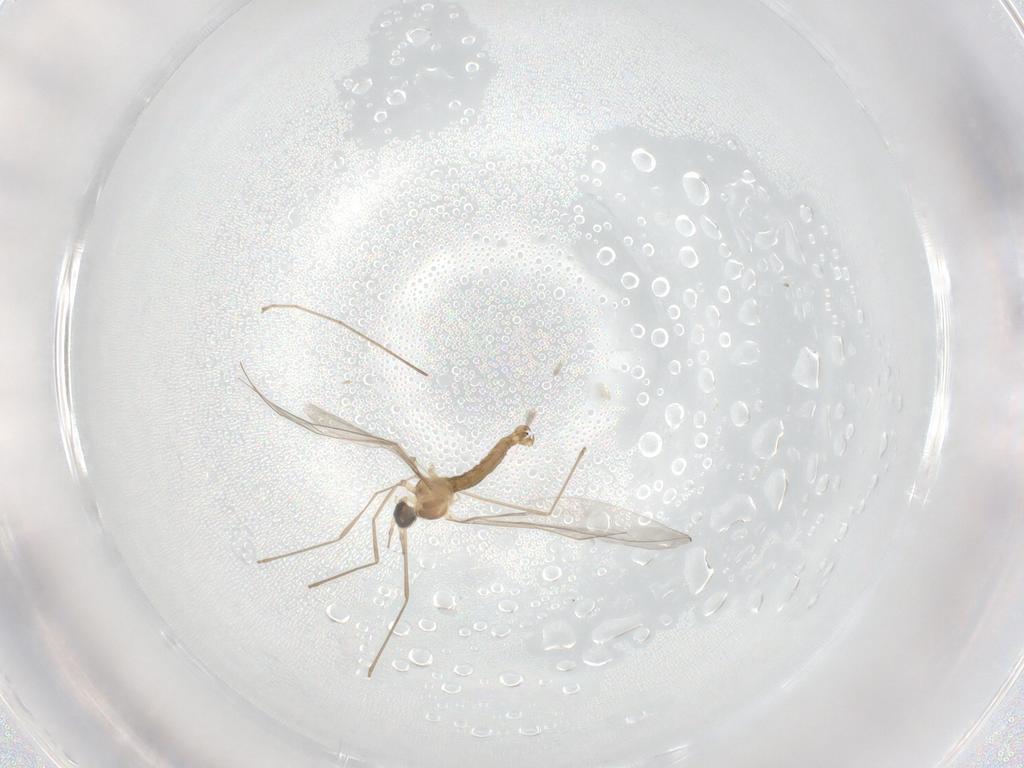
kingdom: Animalia
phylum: Arthropoda
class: Insecta
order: Diptera
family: Cecidomyiidae
